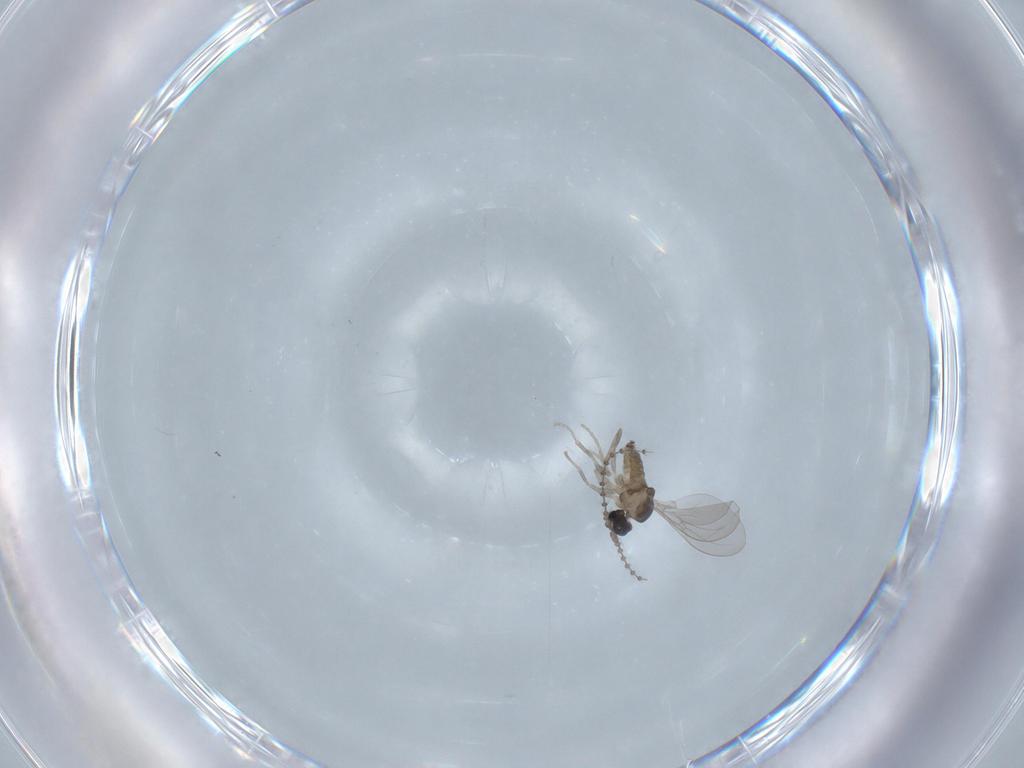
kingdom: Animalia
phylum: Arthropoda
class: Insecta
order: Diptera
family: Cecidomyiidae
